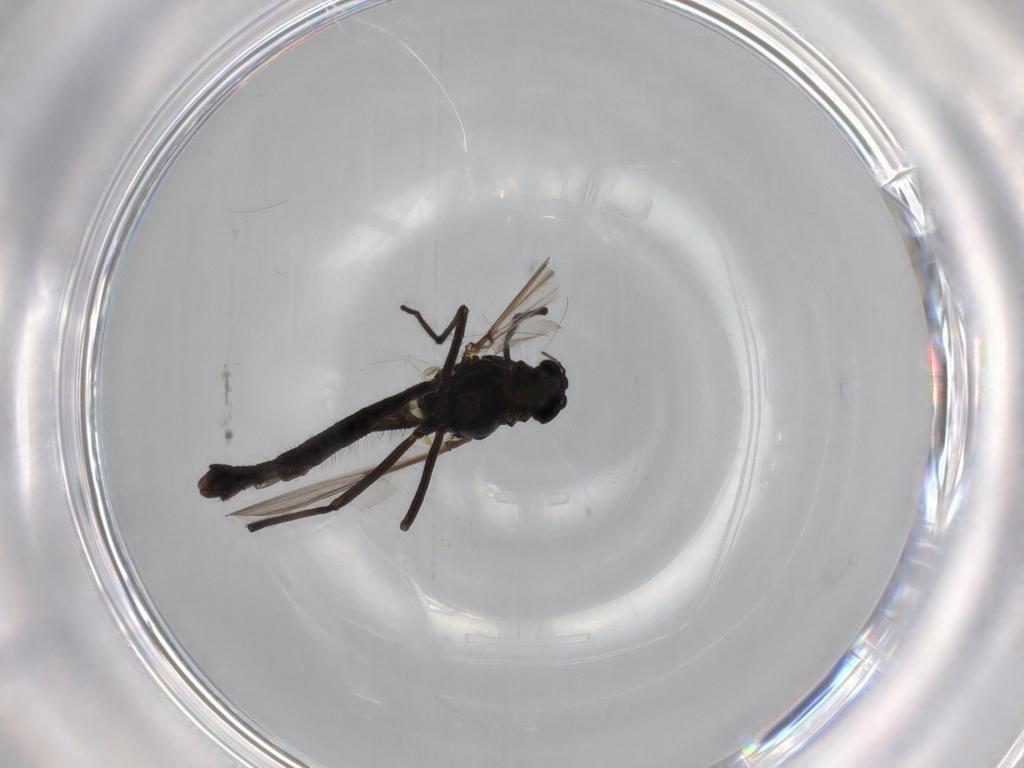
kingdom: Animalia
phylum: Arthropoda
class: Insecta
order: Diptera
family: Chironomidae
